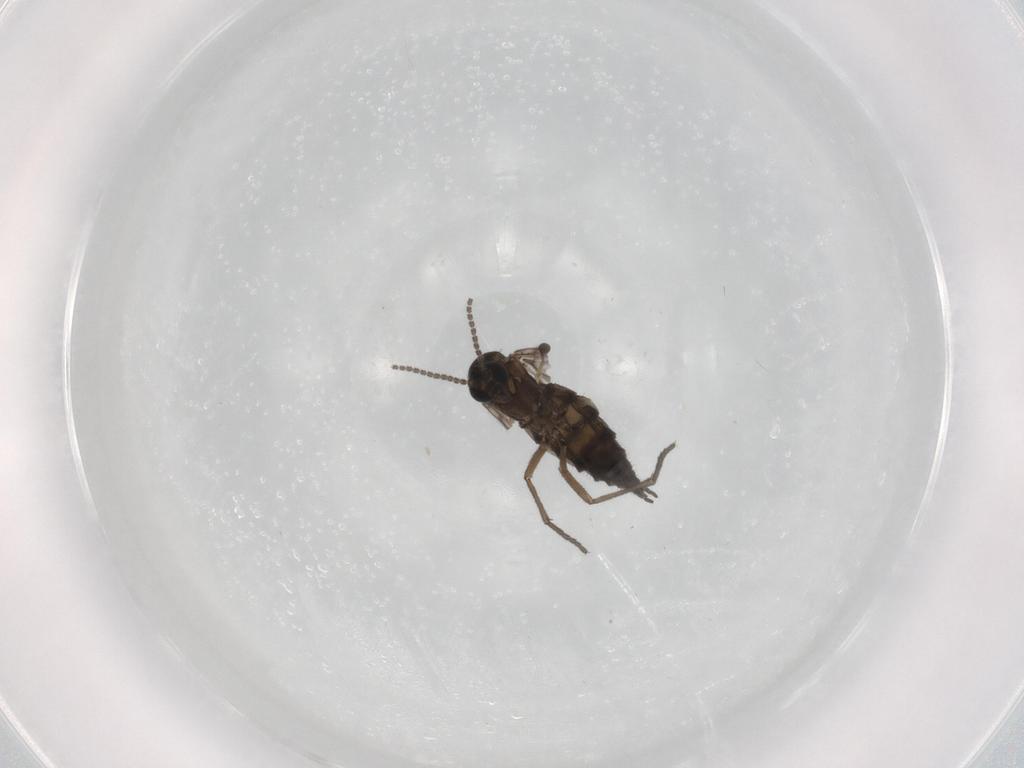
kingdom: Animalia
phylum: Arthropoda
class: Insecta
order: Diptera
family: Sciaridae
